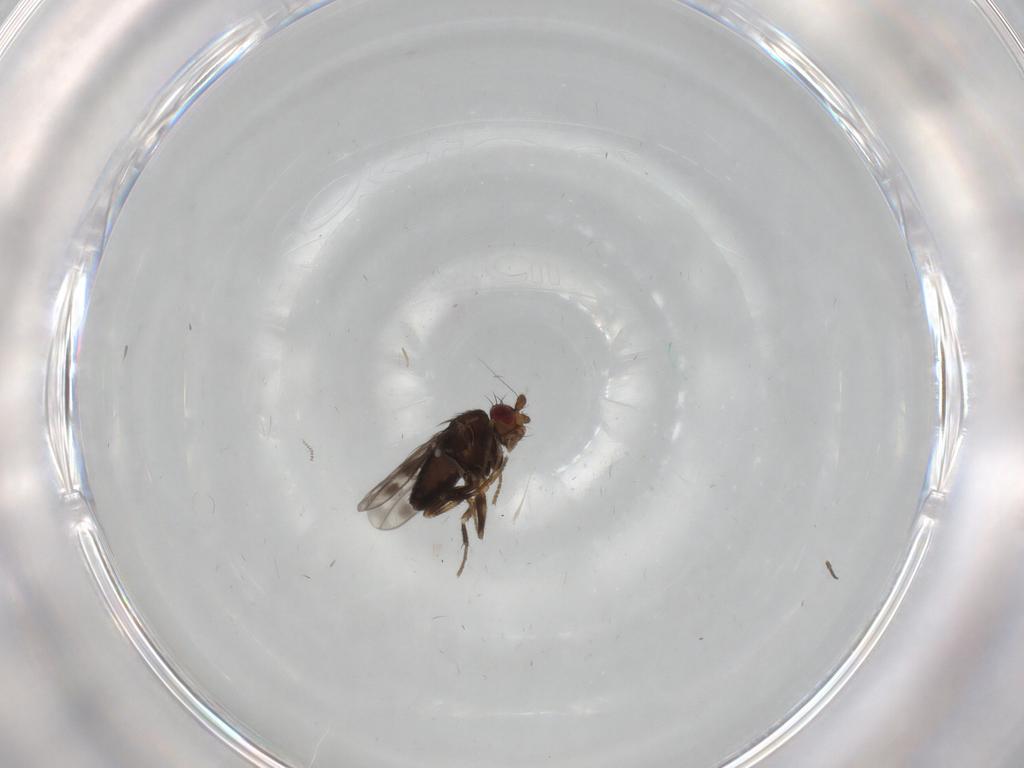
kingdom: Animalia
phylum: Arthropoda
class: Insecta
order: Diptera
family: Sphaeroceridae
